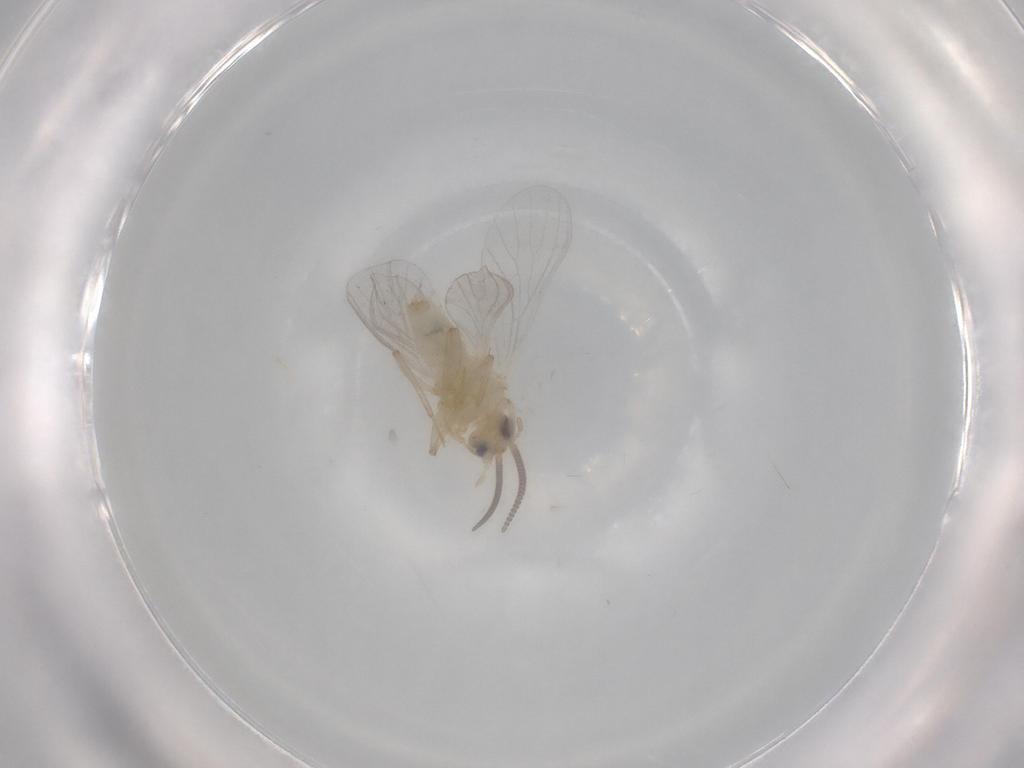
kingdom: Animalia
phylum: Arthropoda
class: Insecta
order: Neuroptera
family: Coniopterygidae
